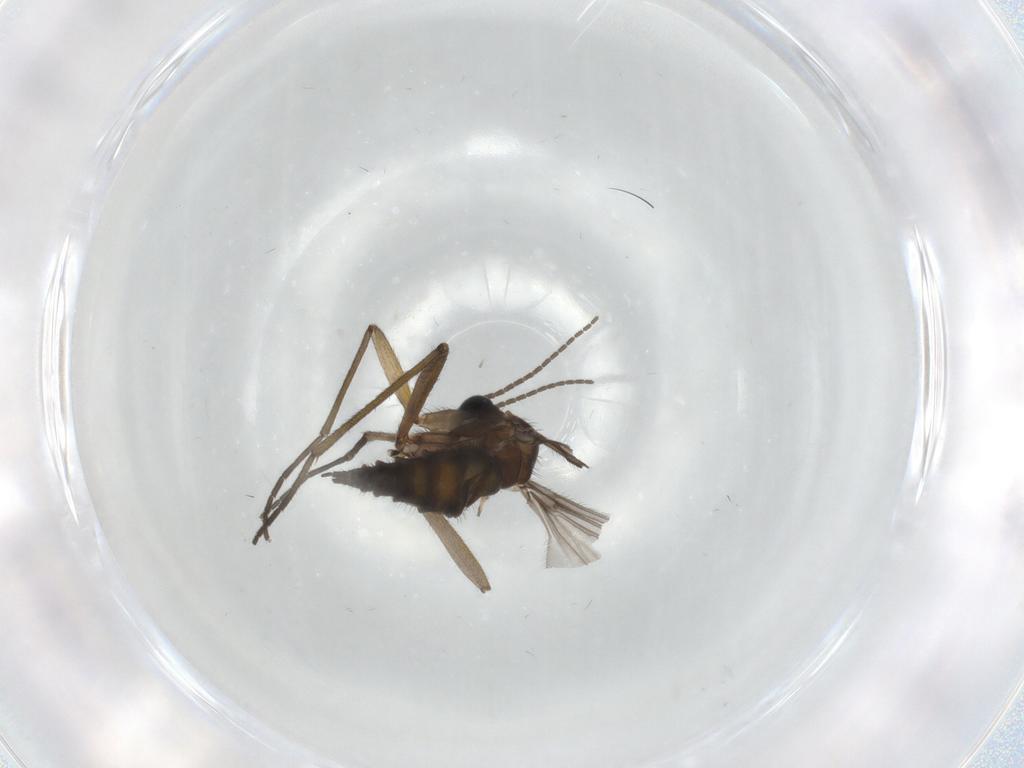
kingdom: Animalia
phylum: Arthropoda
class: Insecta
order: Diptera
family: Sciaridae
